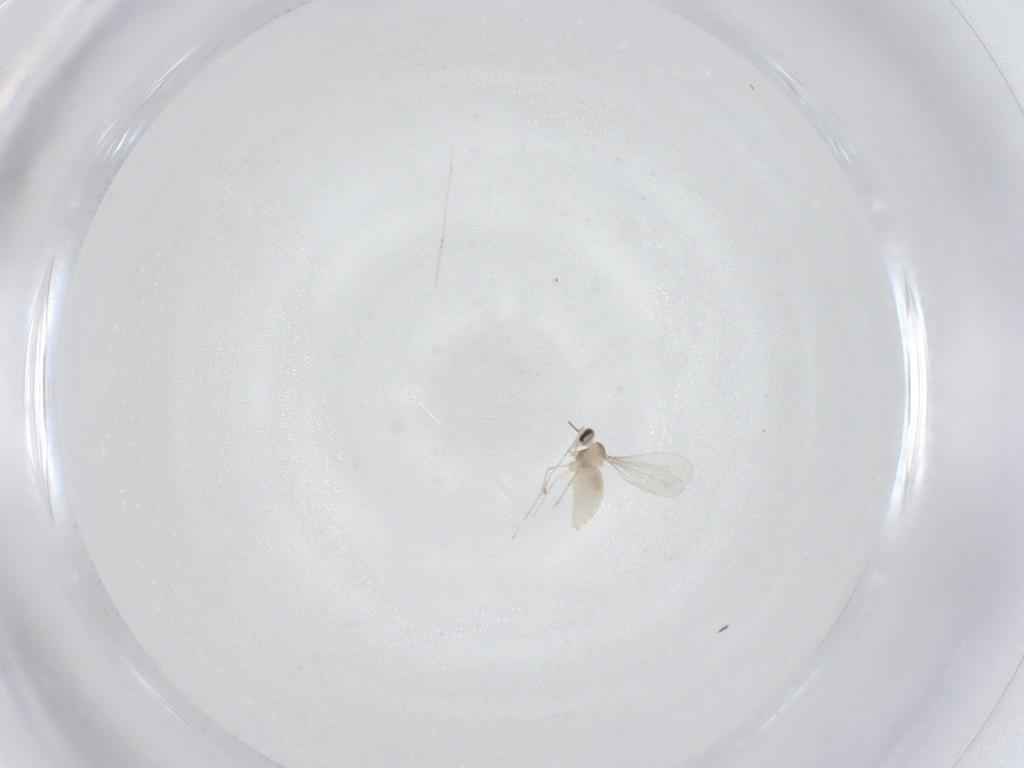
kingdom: Animalia
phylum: Arthropoda
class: Insecta
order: Diptera
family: Cecidomyiidae
